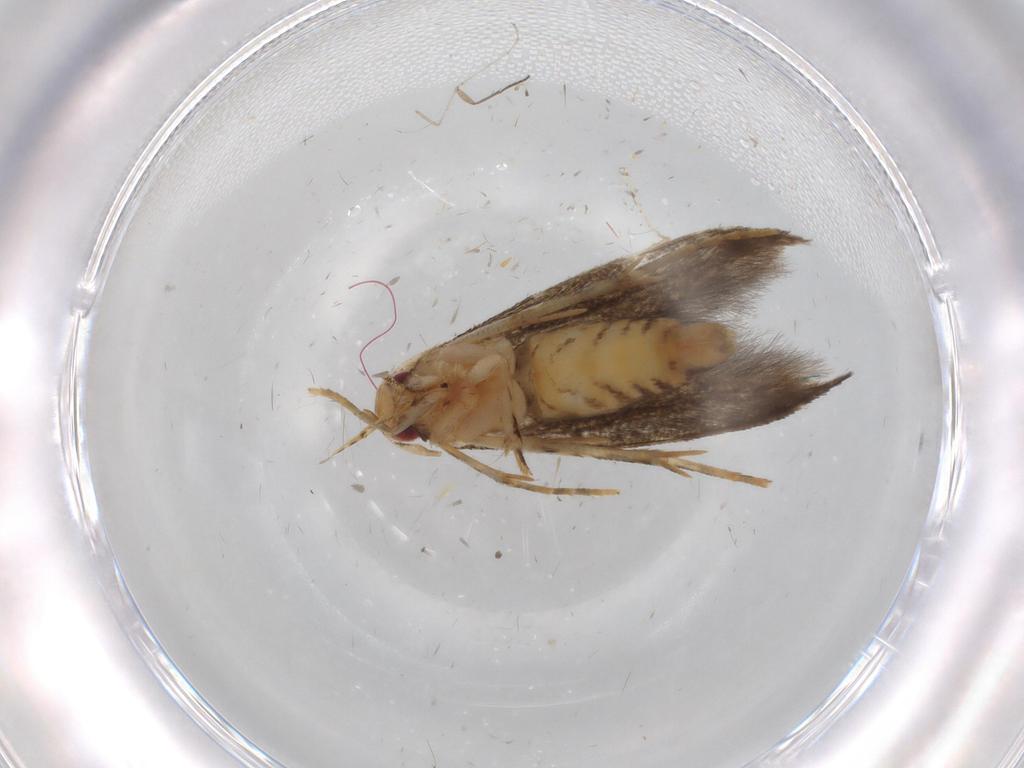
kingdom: Animalia
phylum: Arthropoda
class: Insecta
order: Lepidoptera
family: Momphidae
